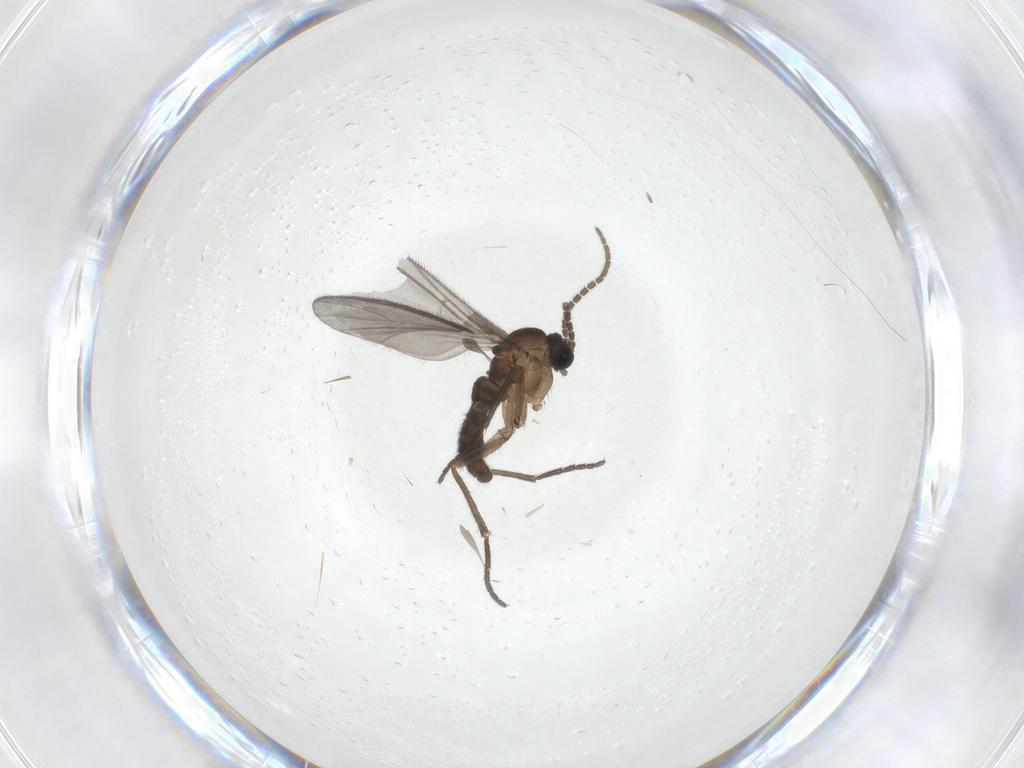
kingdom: Animalia
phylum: Arthropoda
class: Insecta
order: Diptera
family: Sciaridae
